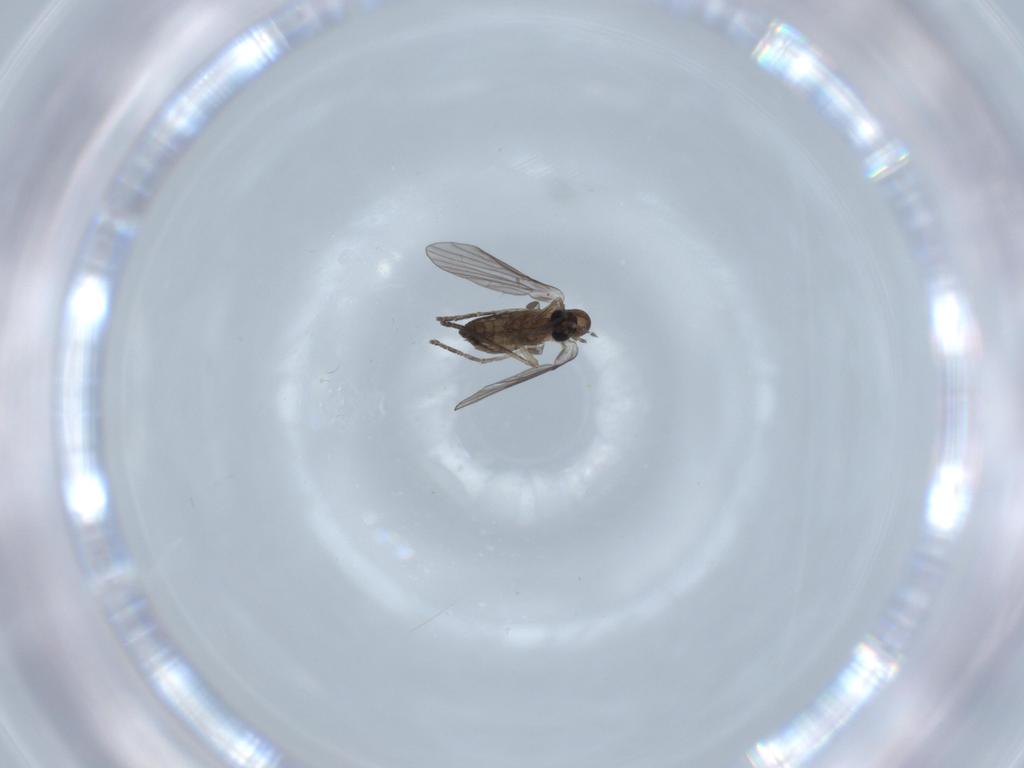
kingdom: Animalia
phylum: Arthropoda
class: Insecta
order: Diptera
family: Psychodidae
